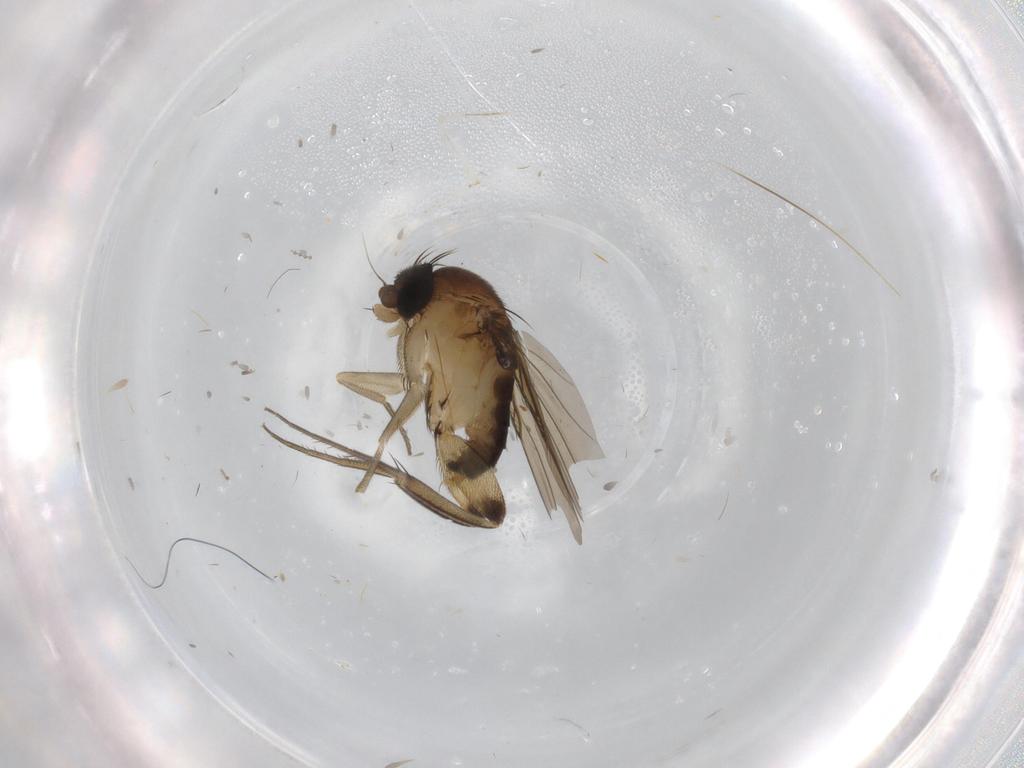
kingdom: Animalia
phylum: Arthropoda
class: Insecta
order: Diptera
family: Phoridae
